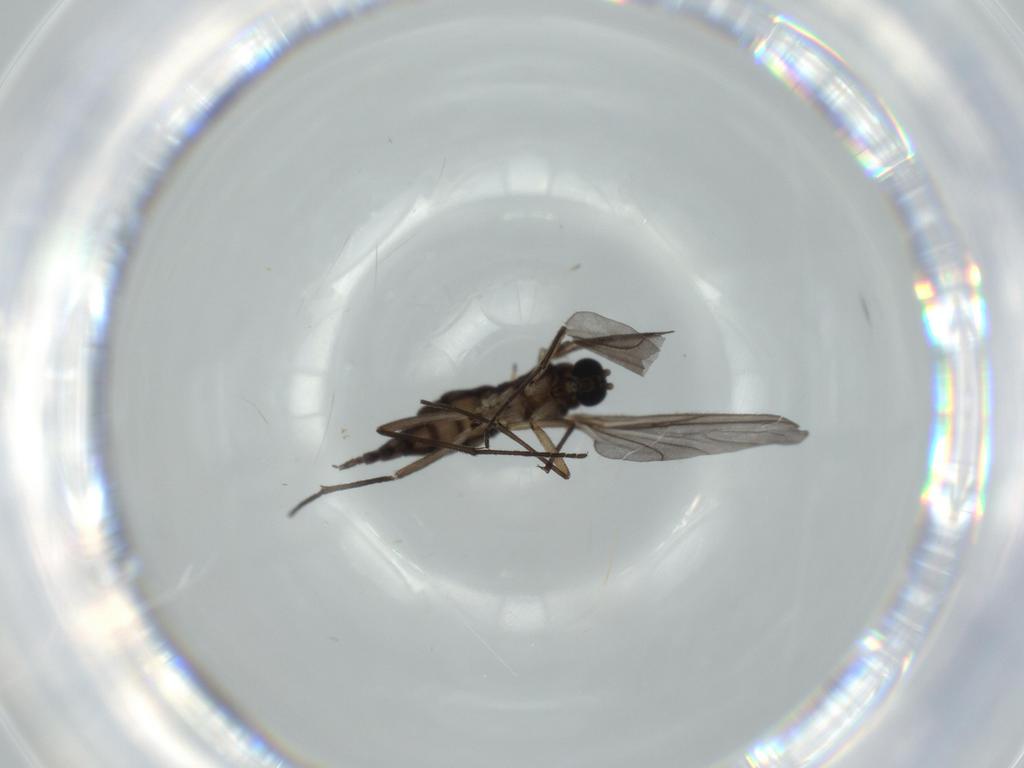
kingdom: Animalia
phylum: Arthropoda
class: Insecta
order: Diptera
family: Sciaridae
